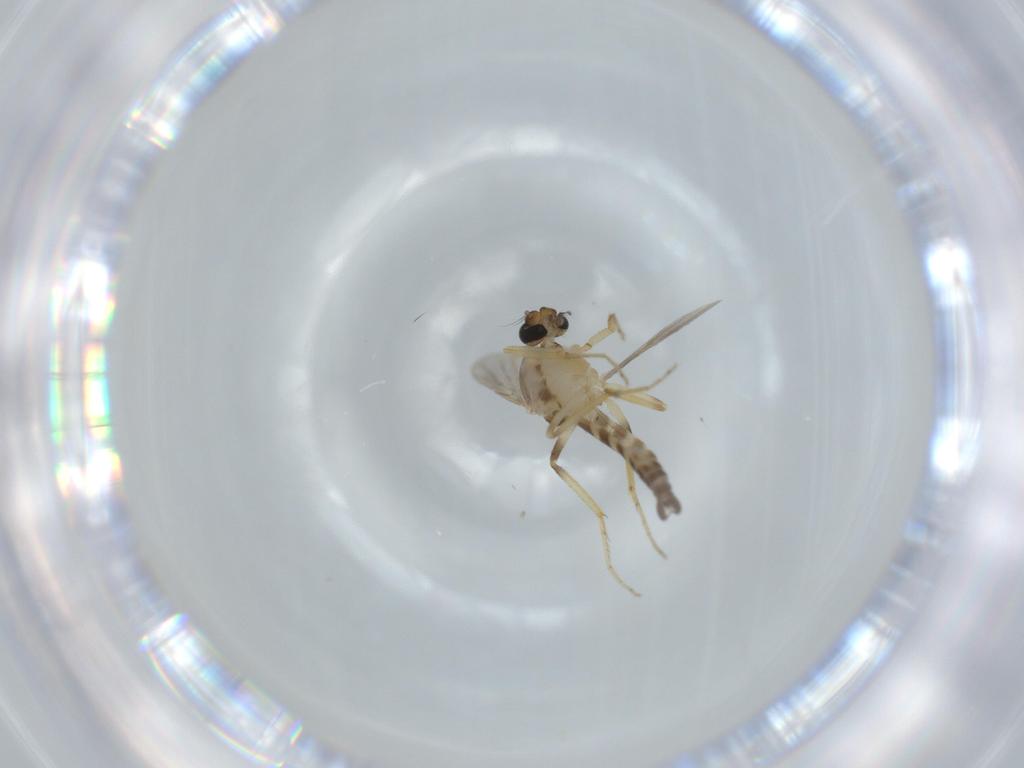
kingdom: Animalia
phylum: Arthropoda
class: Insecta
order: Diptera
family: Ceratopogonidae
